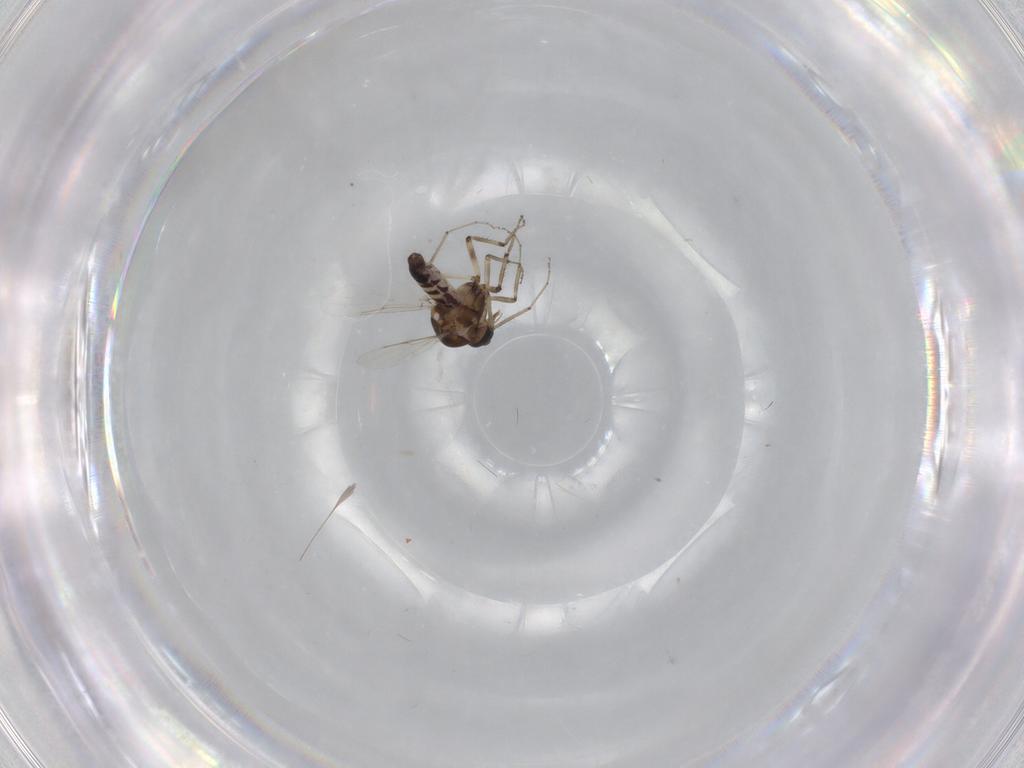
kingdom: Animalia
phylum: Arthropoda
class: Insecta
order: Diptera
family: Ceratopogonidae
